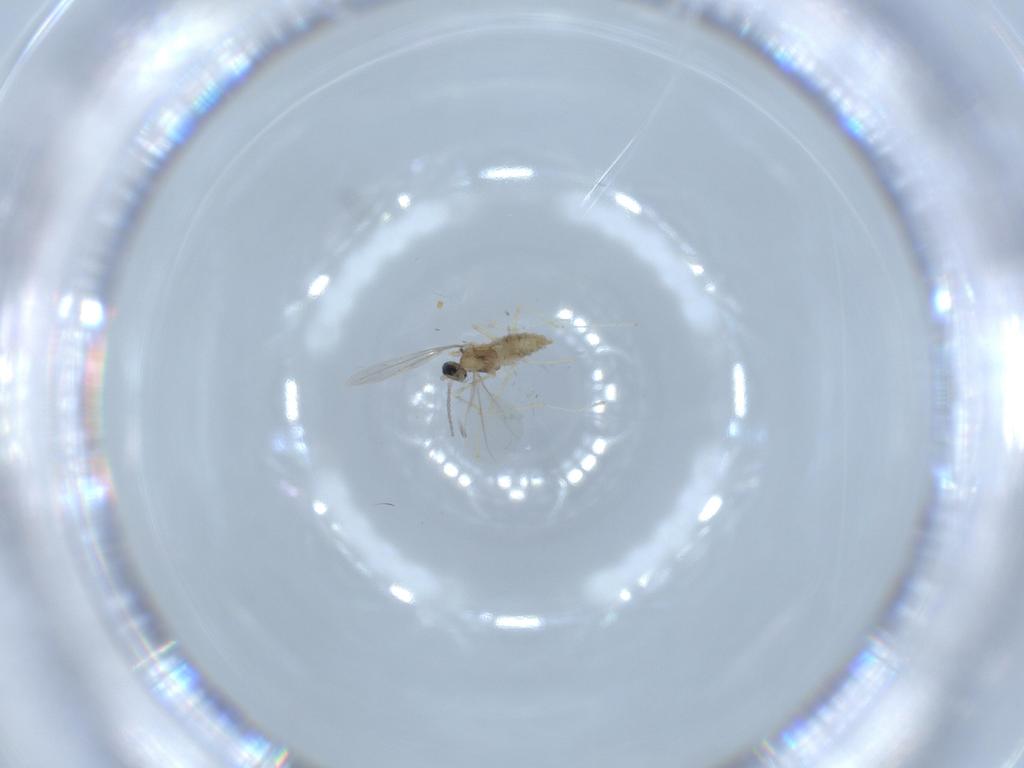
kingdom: Animalia
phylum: Arthropoda
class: Insecta
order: Diptera
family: Cecidomyiidae
